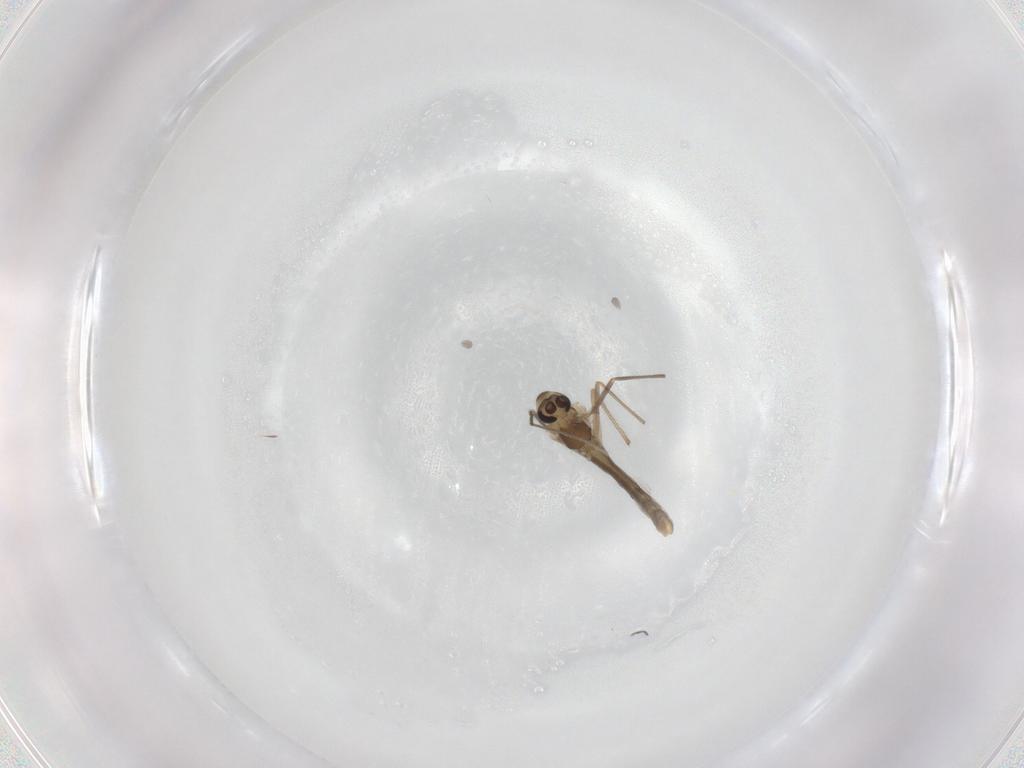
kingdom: Animalia
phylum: Arthropoda
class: Insecta
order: Diptera
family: Chironomidae
